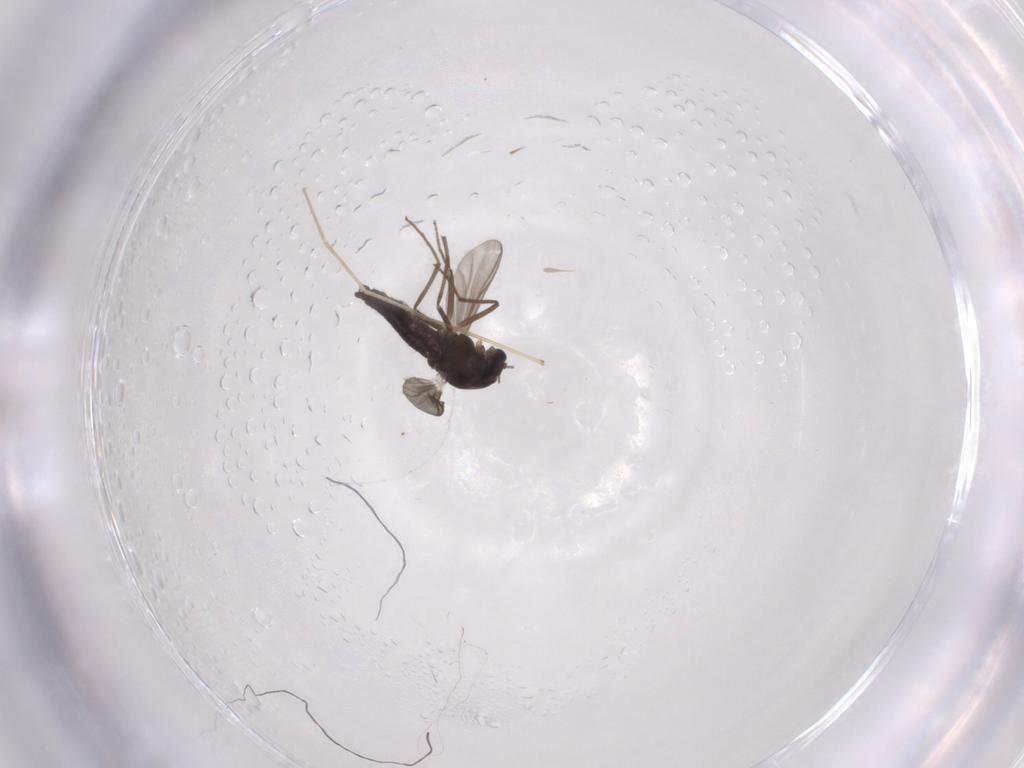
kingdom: Animalia
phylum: Arthropoda
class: Insecta
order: Diptera
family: Chironomidae
